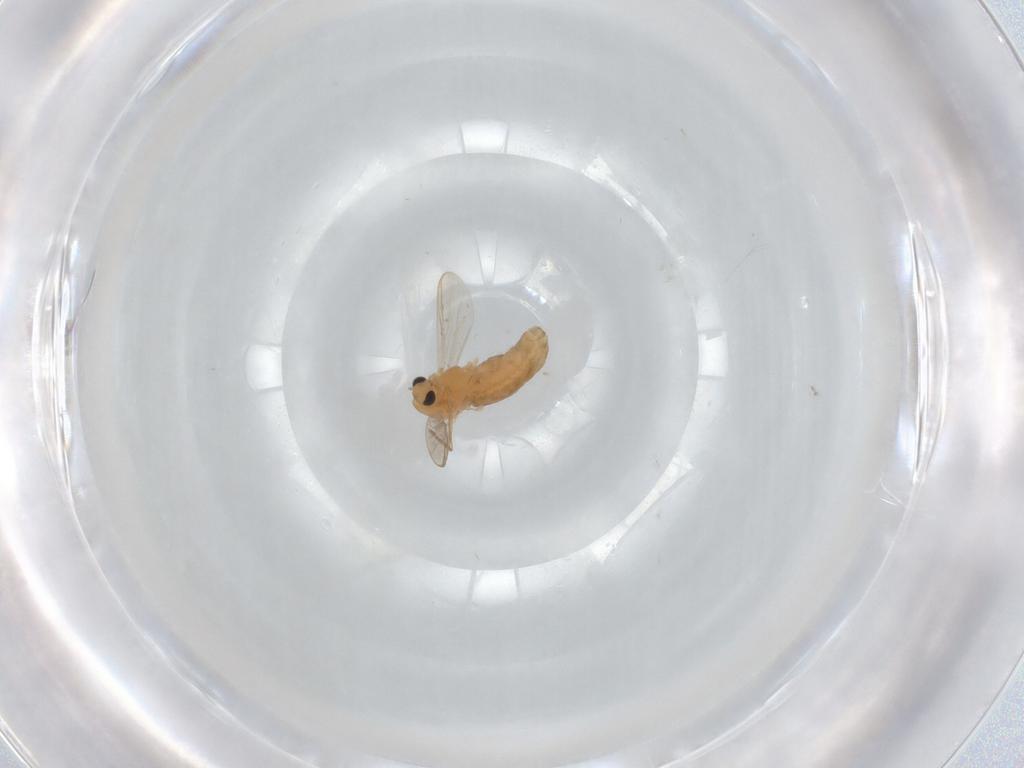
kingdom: Animalia
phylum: Arthropoda
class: Insecta
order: Diptera
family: Chironomidae
